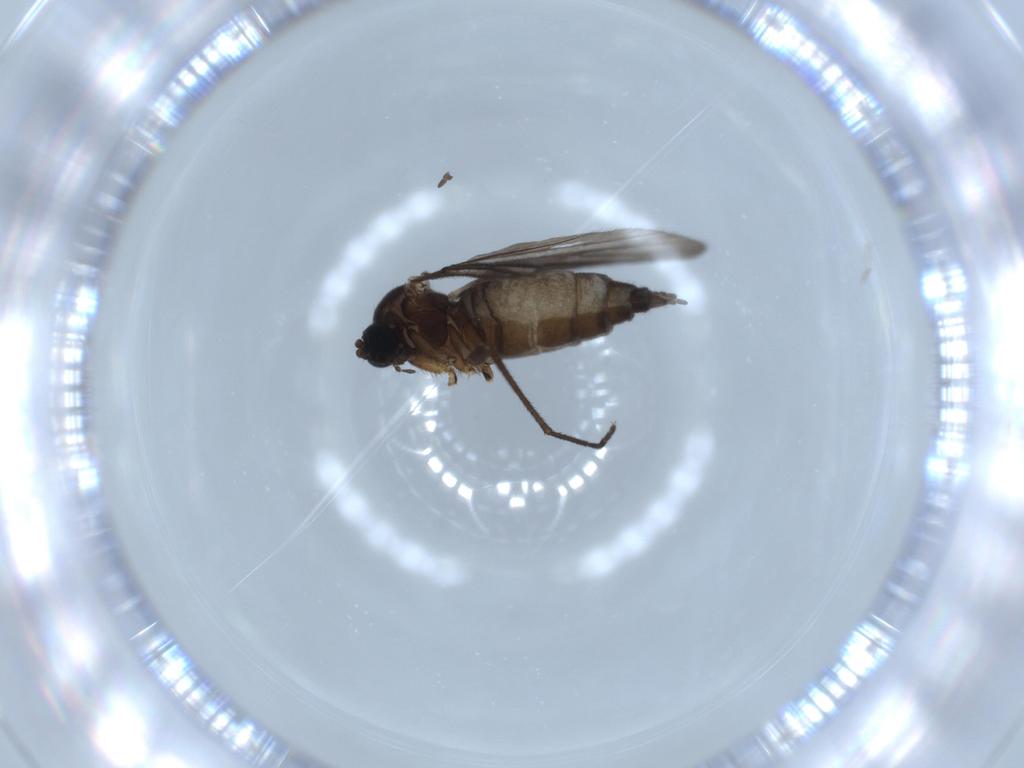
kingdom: Animalia
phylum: Arthropoda
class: Insecta
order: Diptera
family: Sciaridae
